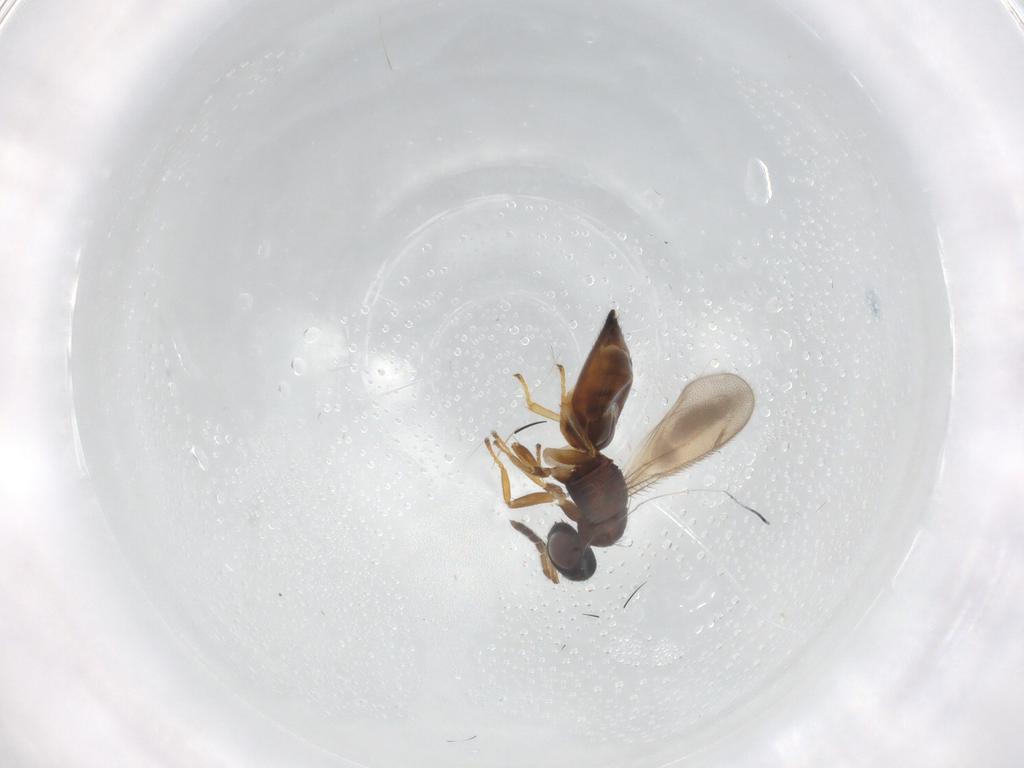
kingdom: Animalia
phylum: Arthropoda
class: Insecta
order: Hymenoptera
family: Eulophidae
